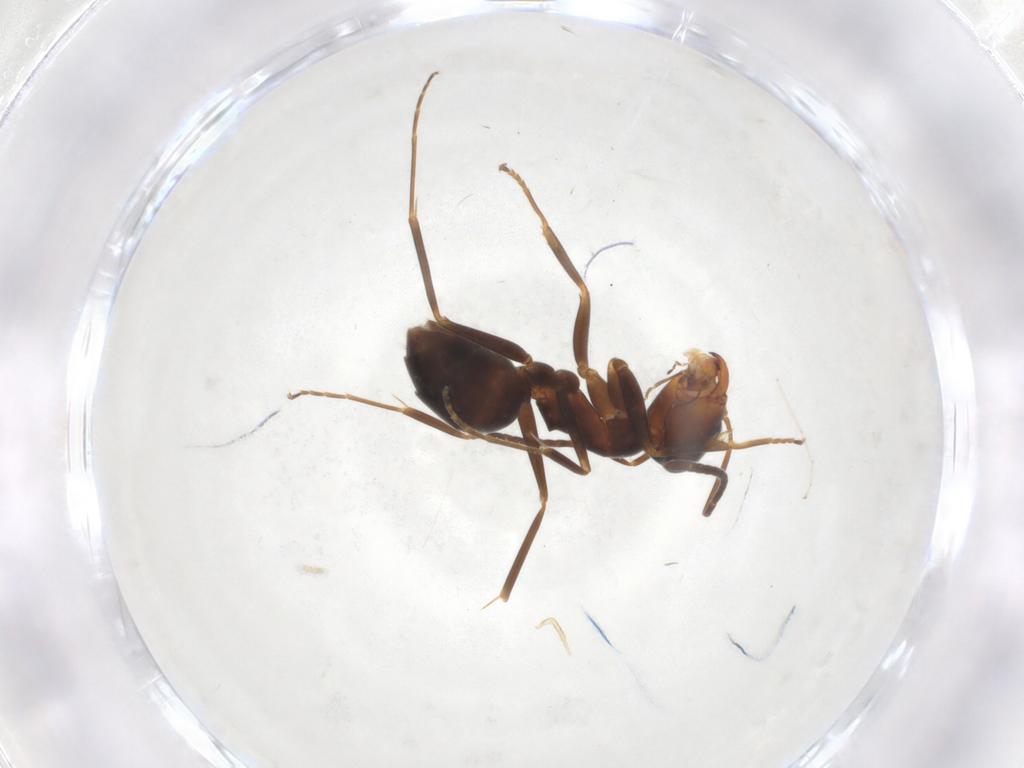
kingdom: Animalia
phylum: Arthropoda
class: Insecta
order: Hymenoptera
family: Formicidae
